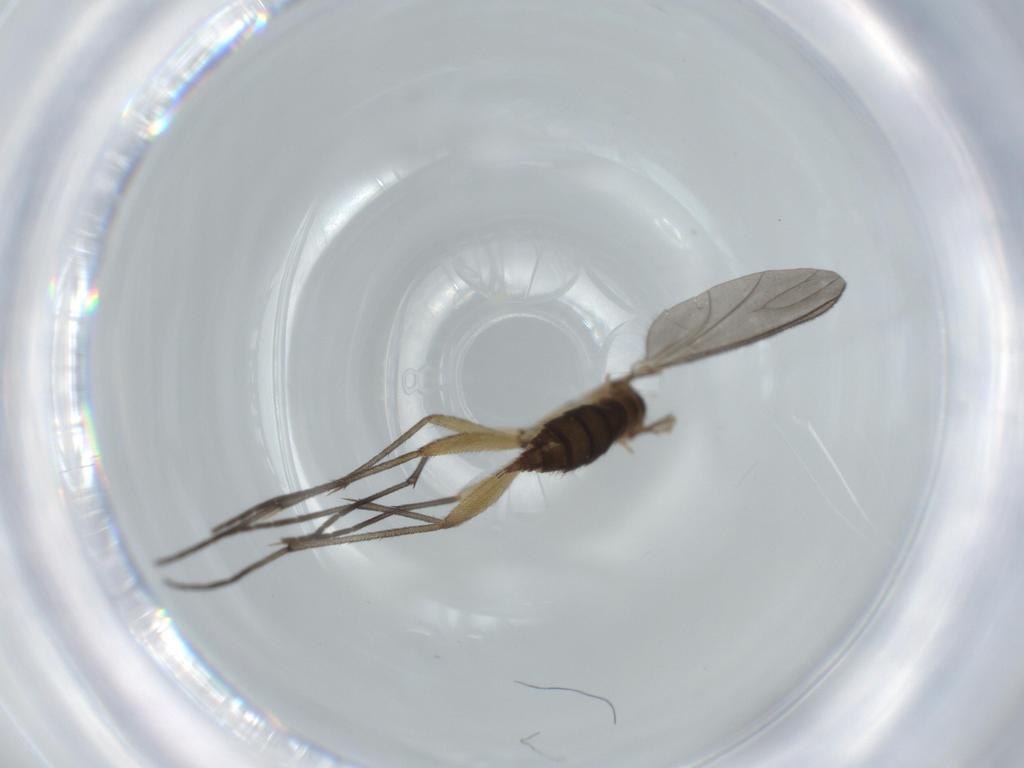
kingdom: Animalia
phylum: Arthropoda
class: Insecta
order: Diptera
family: Sciaridae
